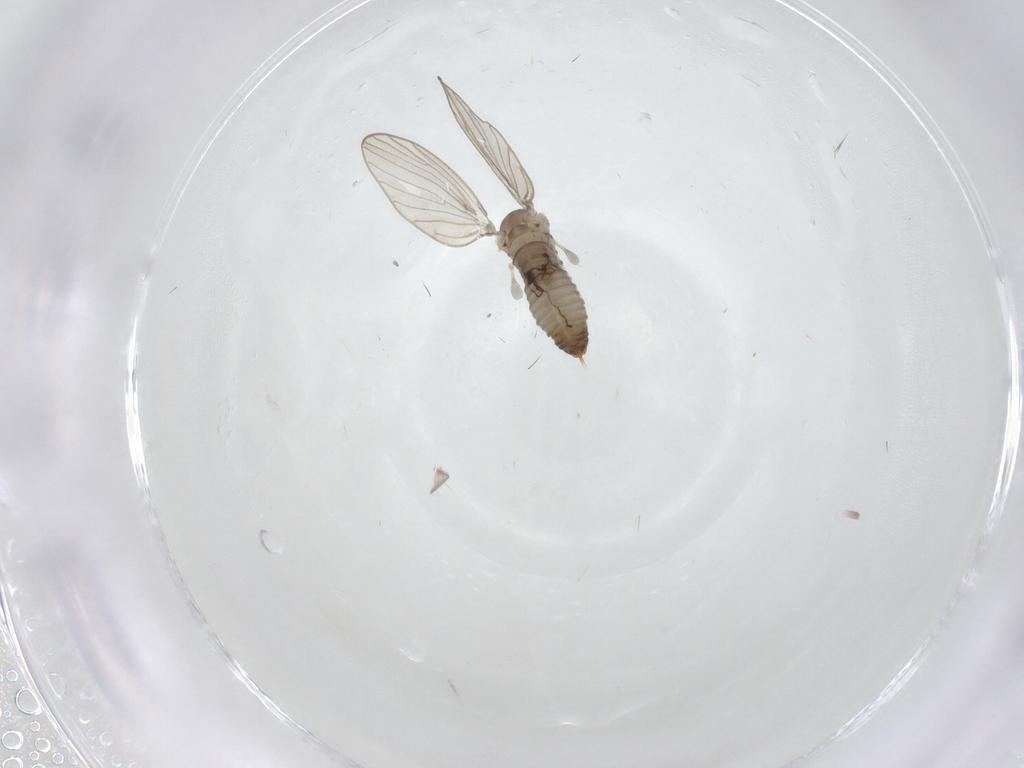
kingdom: Animalia
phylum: Arthropoda
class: Insecta
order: Diptera
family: Psychodidae
